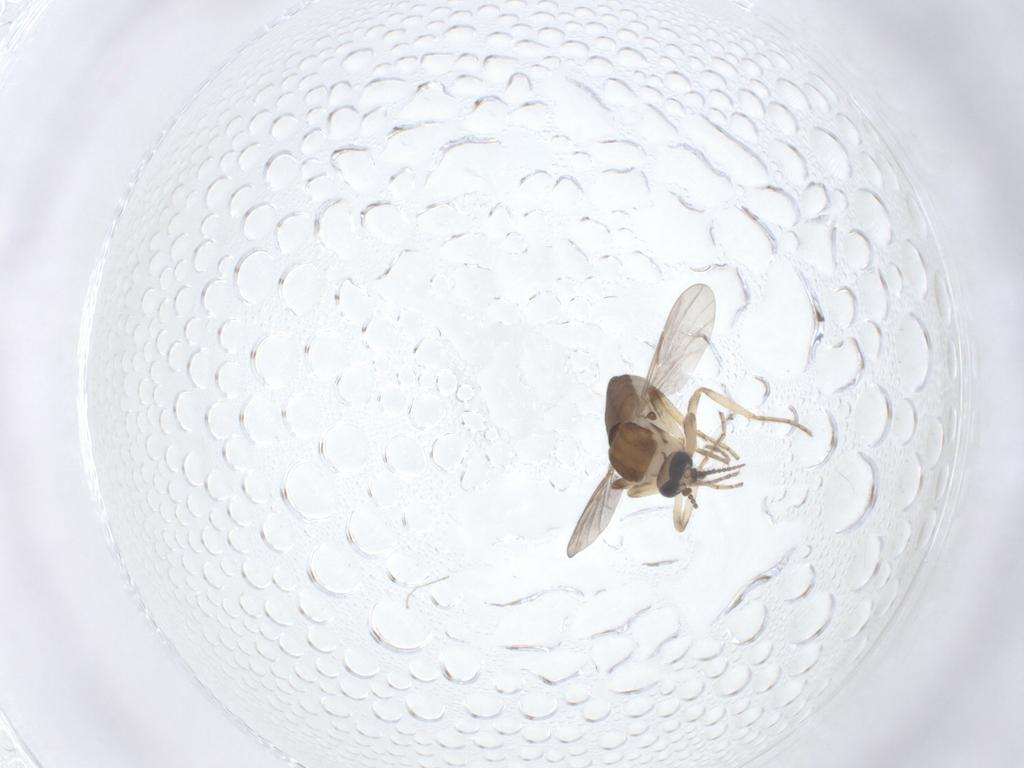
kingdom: Animalia
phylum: Arthropoda
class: Insecta
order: Diptera
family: Ceratopogonidae
